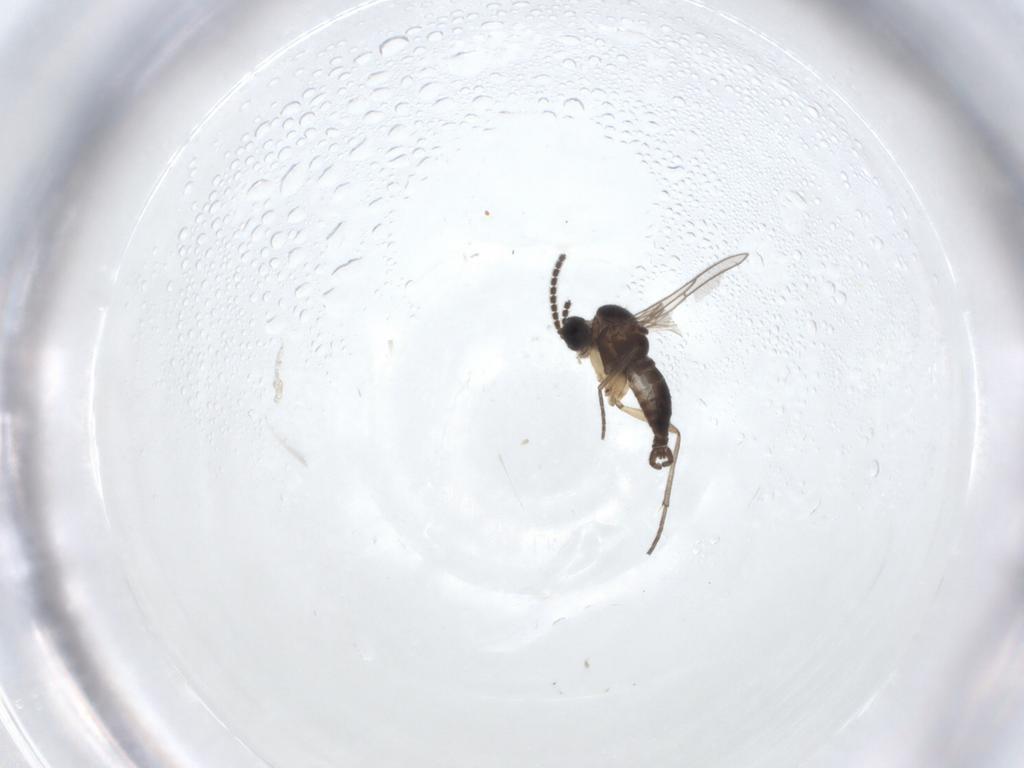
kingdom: Animalia
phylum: Arthropoda
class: Insecta
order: Diptera
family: Cecidomyiidae
